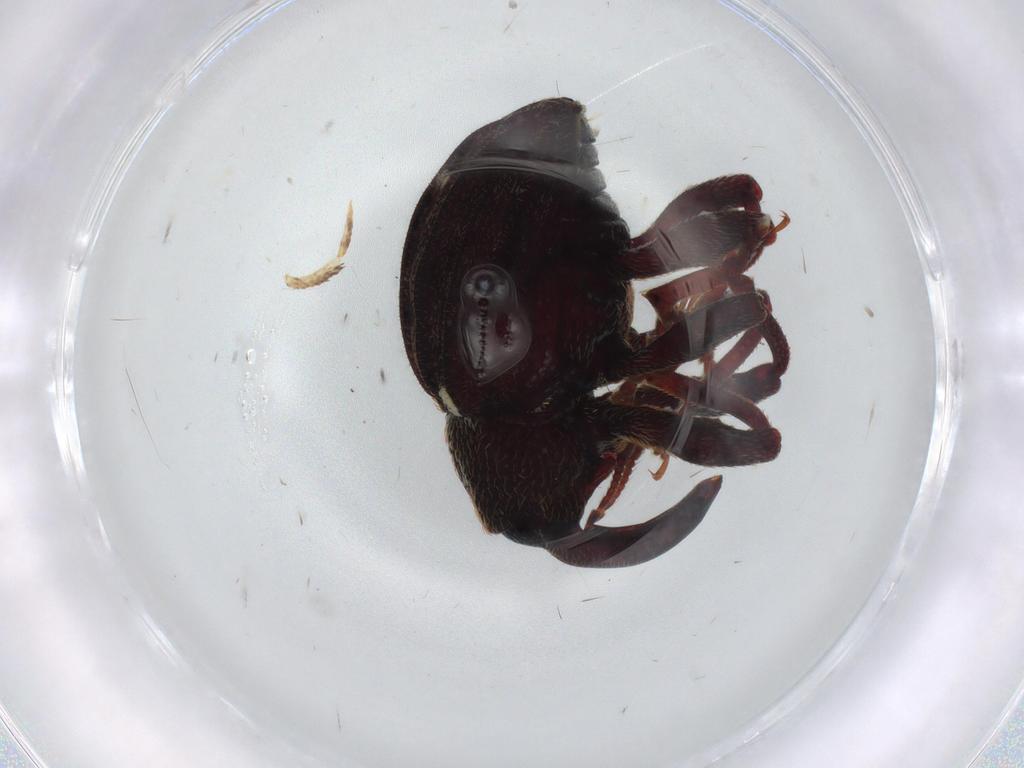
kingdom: Animalia
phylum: Arthropoda
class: Insecta
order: Coleoptera
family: Curculionidae
